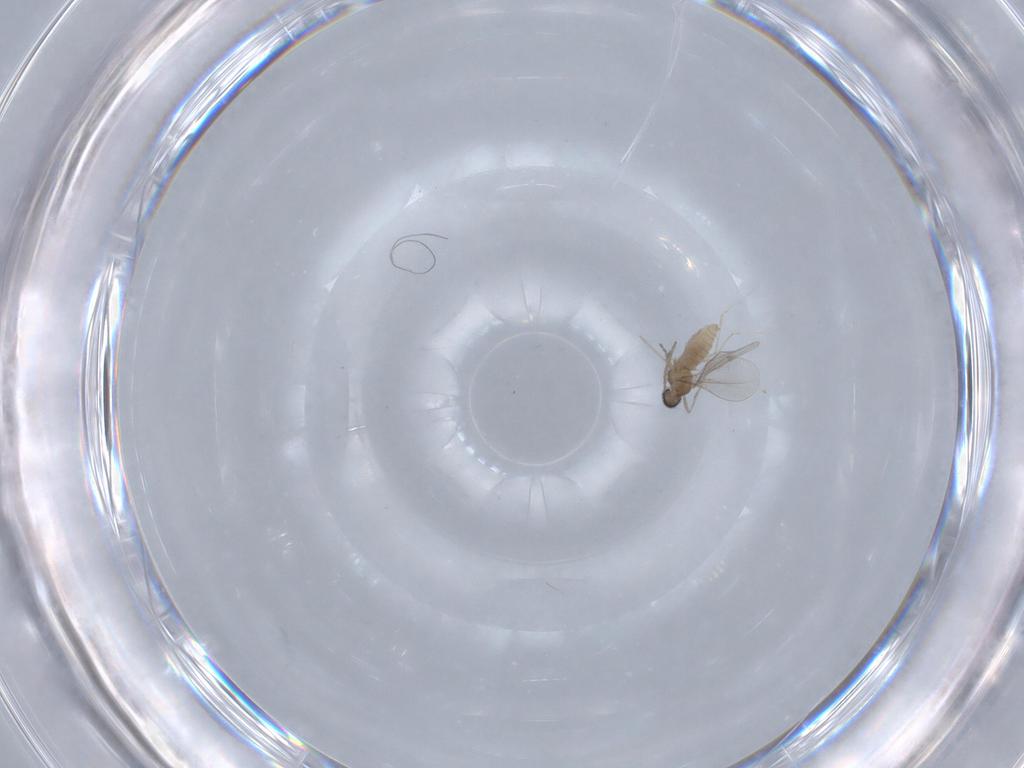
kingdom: Animalia
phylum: Arthropoda
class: Insecta
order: Diptera
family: Cecidomyiidae
